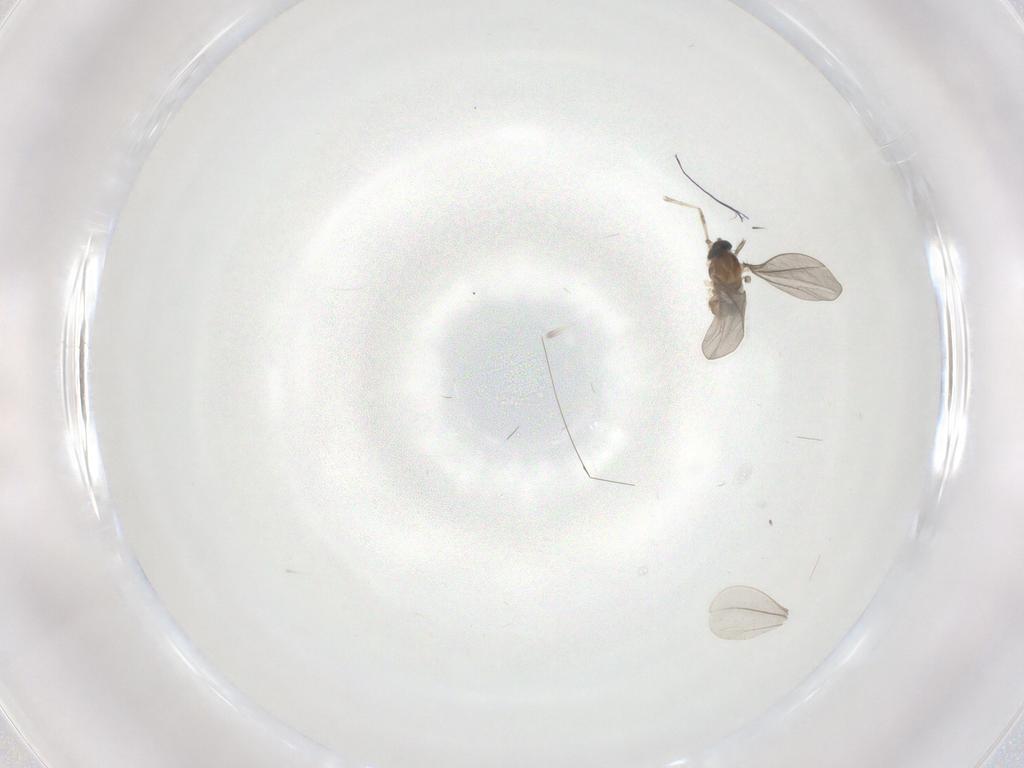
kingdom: Animalia
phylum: Arthropoda
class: Insecta
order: Diptera
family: Cecidomyiidae
